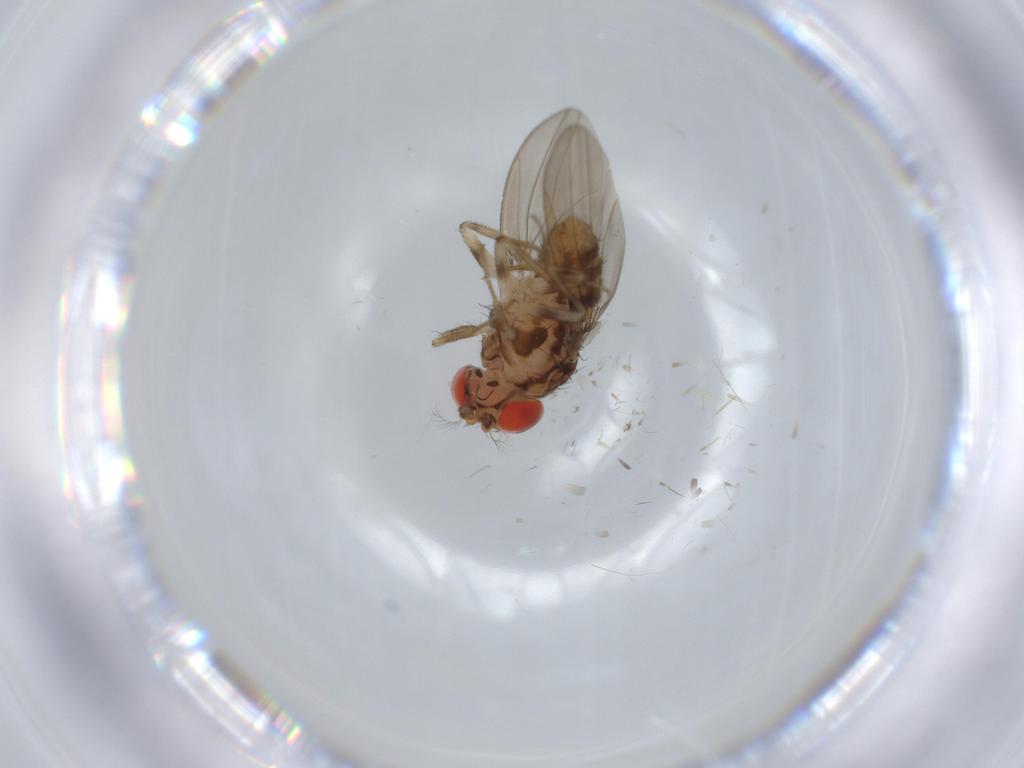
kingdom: Animalia
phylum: Arthropoda
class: Insecta
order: Diptera
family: Drosophilidae
